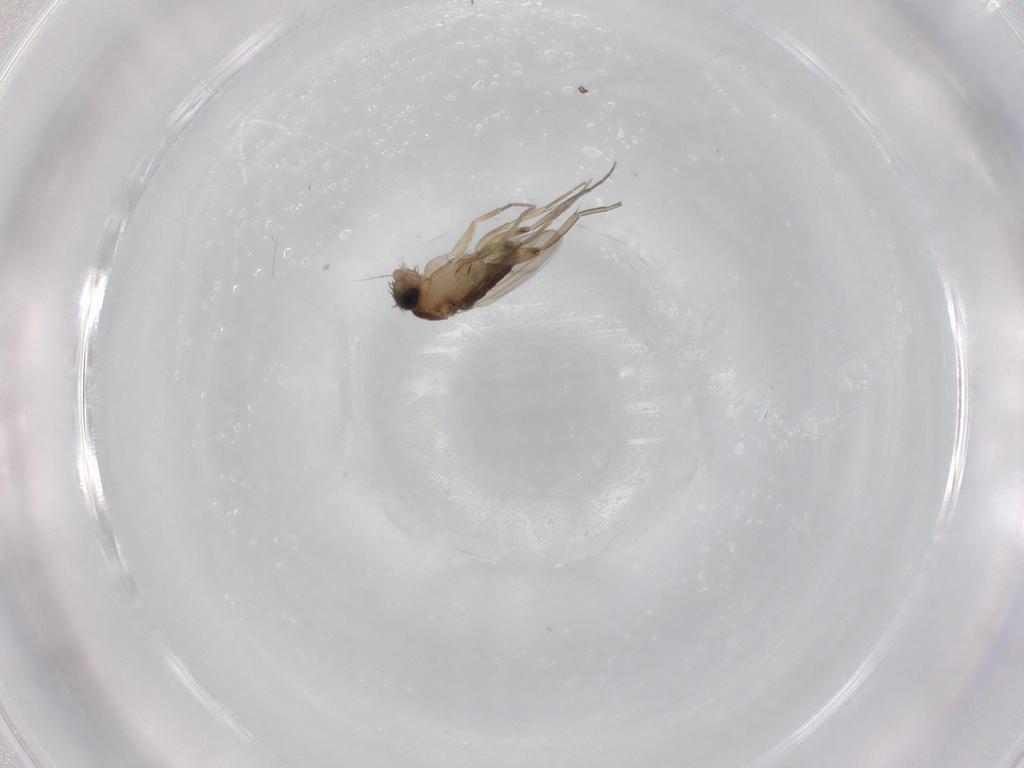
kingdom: Animalia
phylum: Arthropoda
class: Insecta
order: Diptera
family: Phoridae
